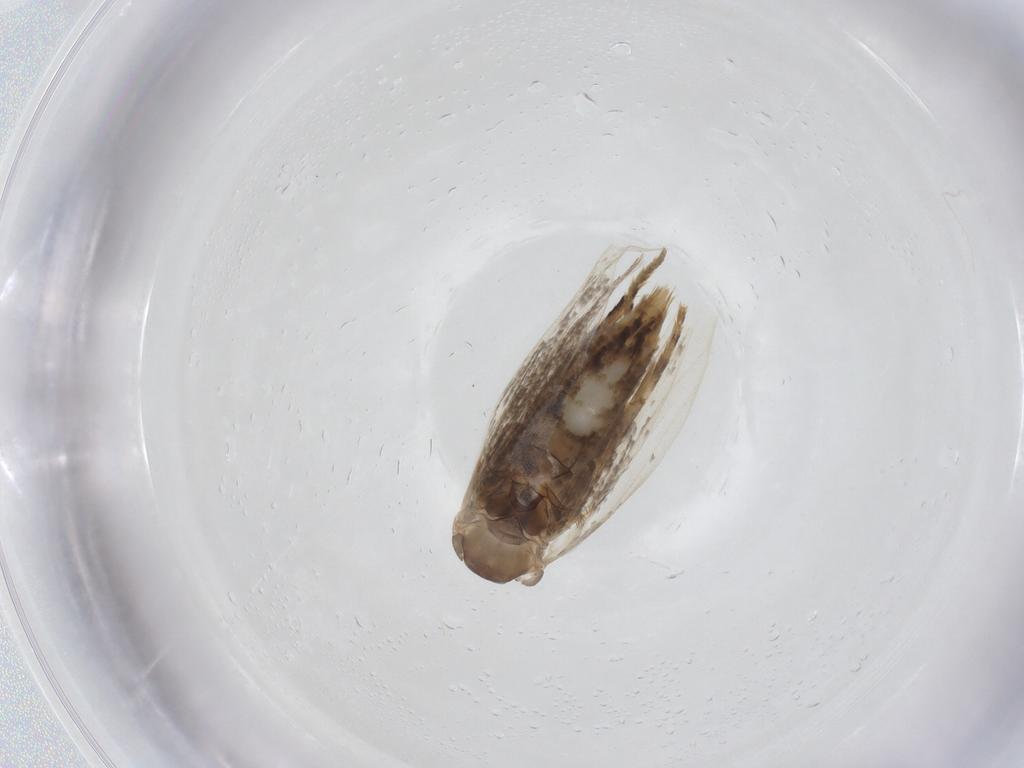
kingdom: Animalia
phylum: Arthropoda
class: Insecta
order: Lepidoptera
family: Elachistidae
